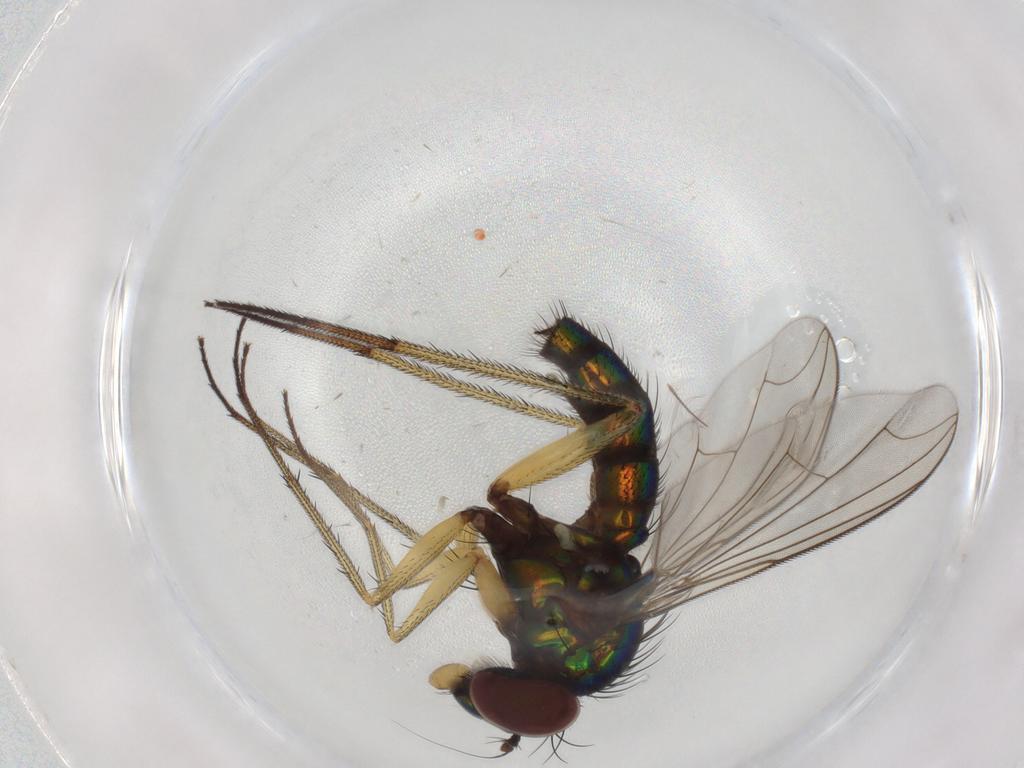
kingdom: Animalia
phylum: Arthropoda
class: Insecta
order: Diptera
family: Dolichopodidae
